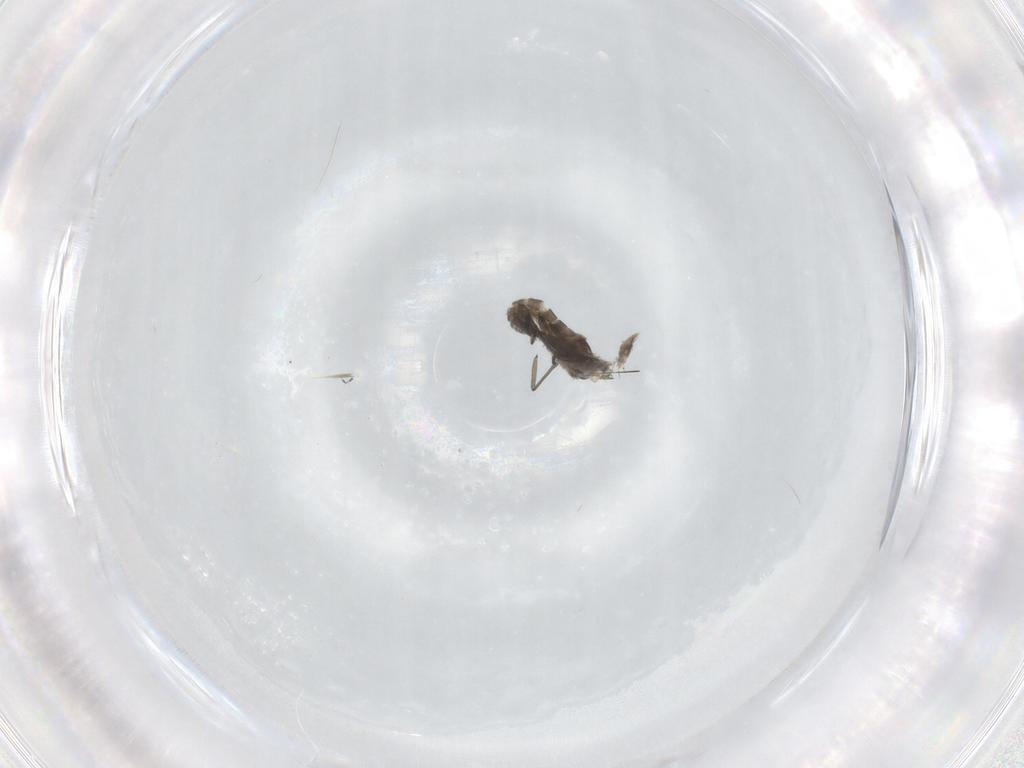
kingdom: Animalia
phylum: Arthropoda
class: Insecta
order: Diptera
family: Cecidomyiidae
